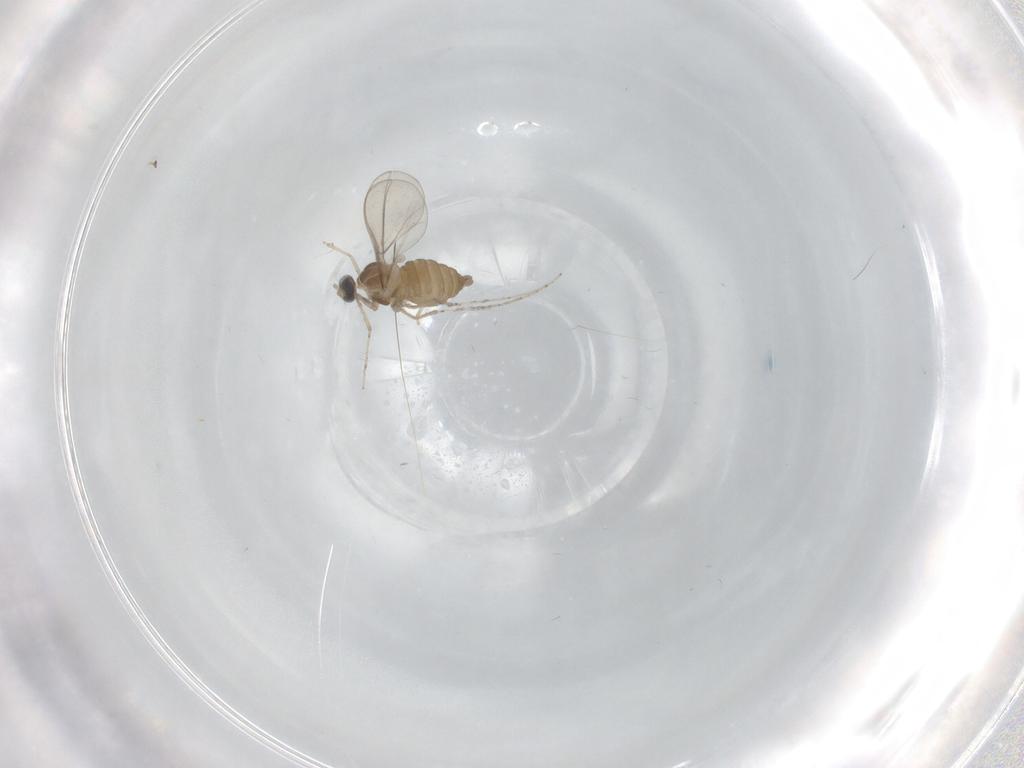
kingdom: Animalia
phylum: Arthropoda
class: Insecta
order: Diptera
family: Cecidomyiidae
